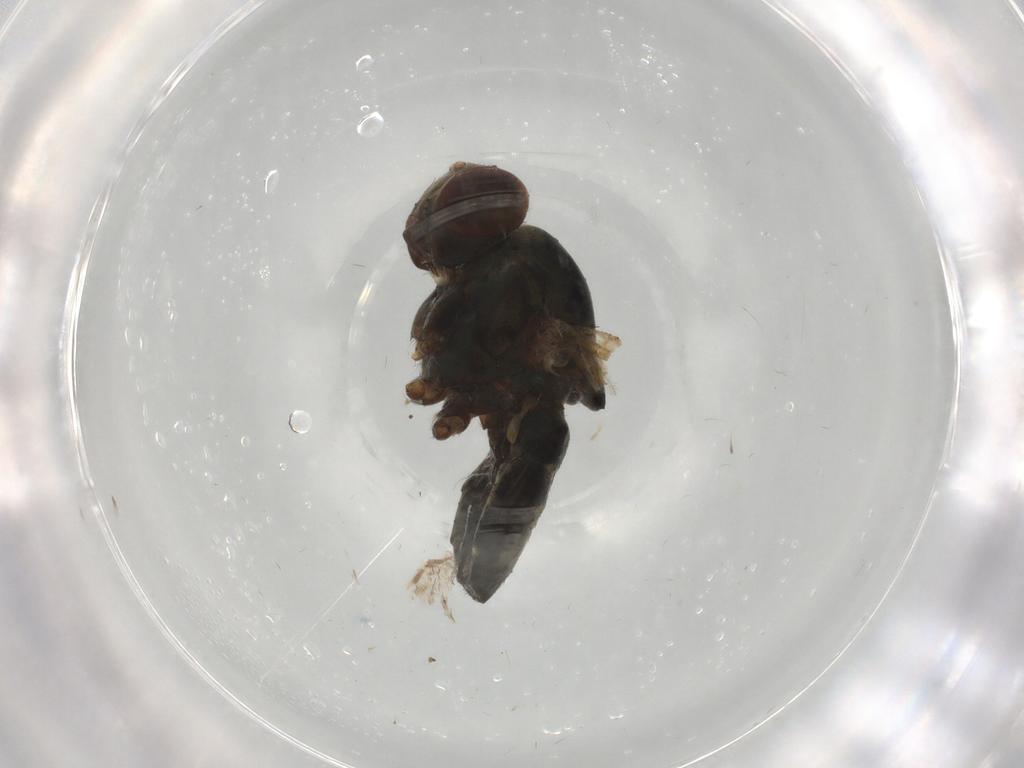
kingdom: Animalia
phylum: Arthropoda
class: Insecta
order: Diptera
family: Ephydridae
